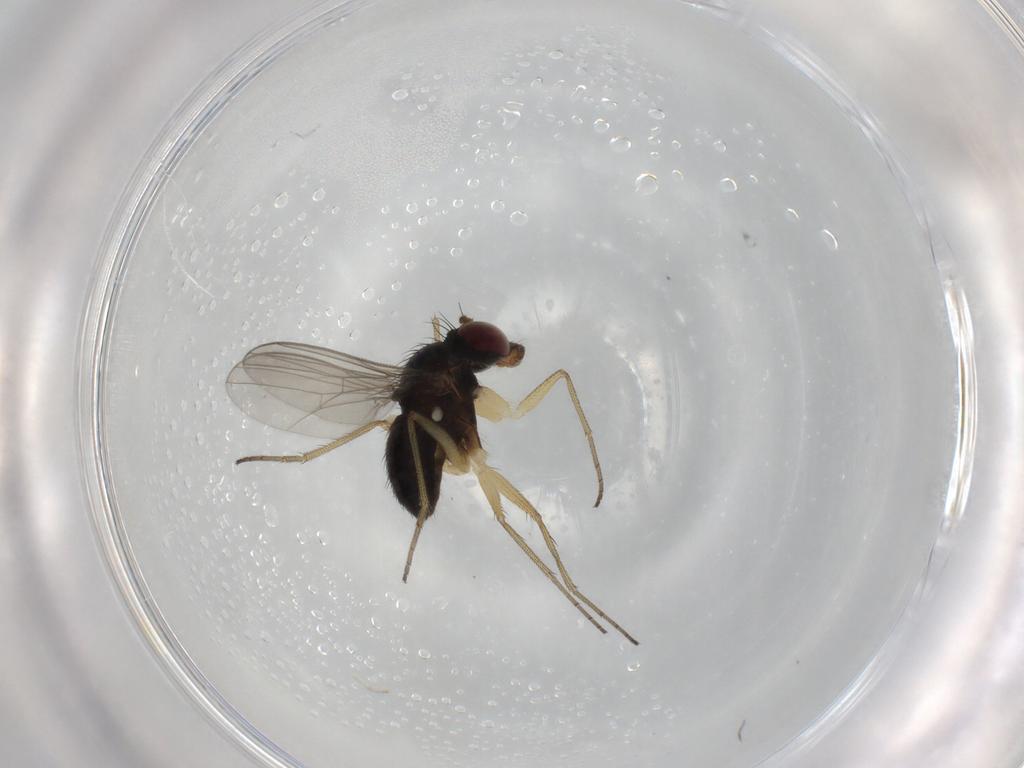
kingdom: Animalia
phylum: Arthropoda
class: Insecta
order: Diptera
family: Dolichopodidae
